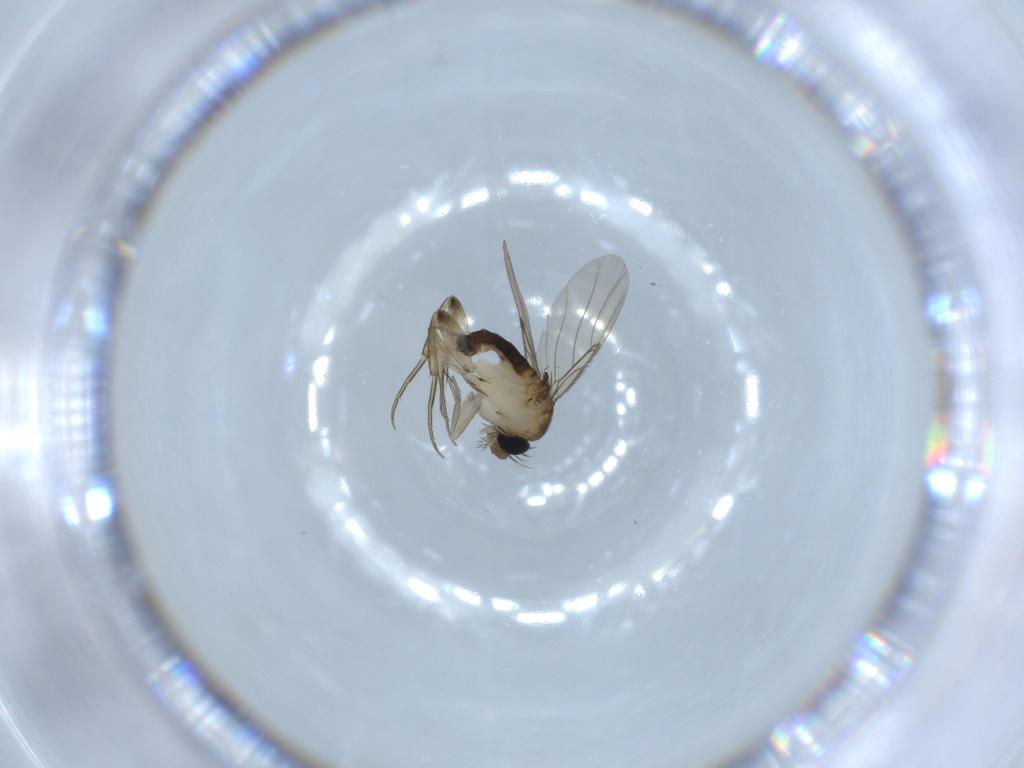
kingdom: Animalia
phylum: Arthropoda
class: Insecta
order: Diptera
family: Phoridae
